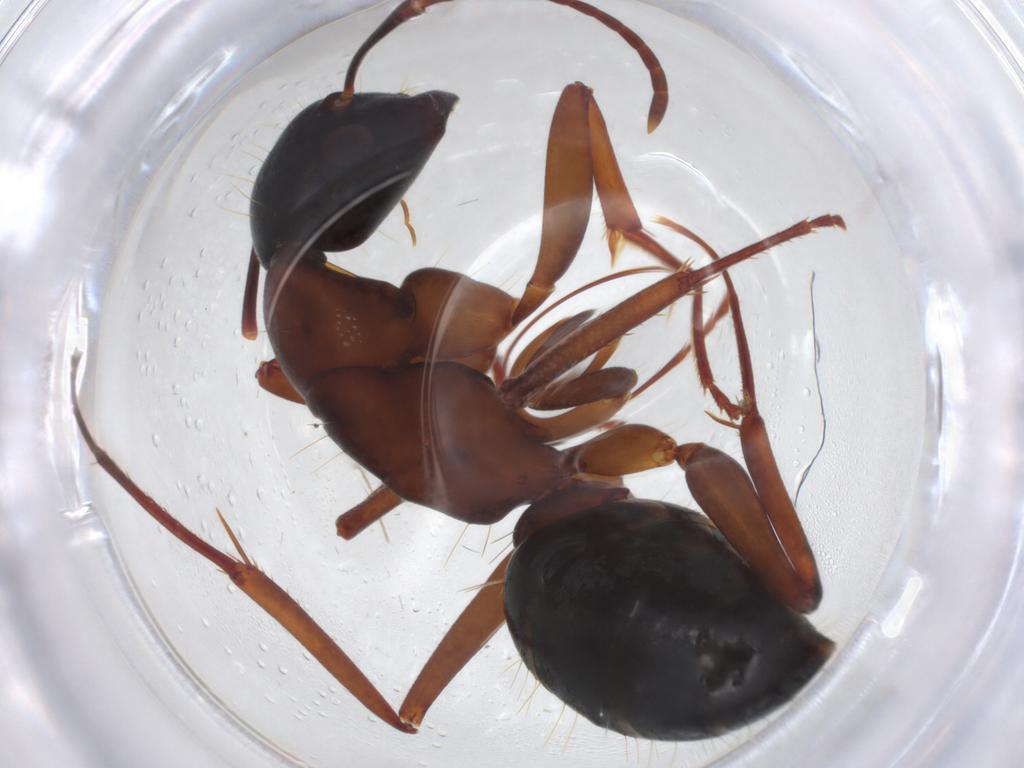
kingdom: Animalia
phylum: Arthropoda
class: Insecta
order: Hymenoptera
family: Formicidae
